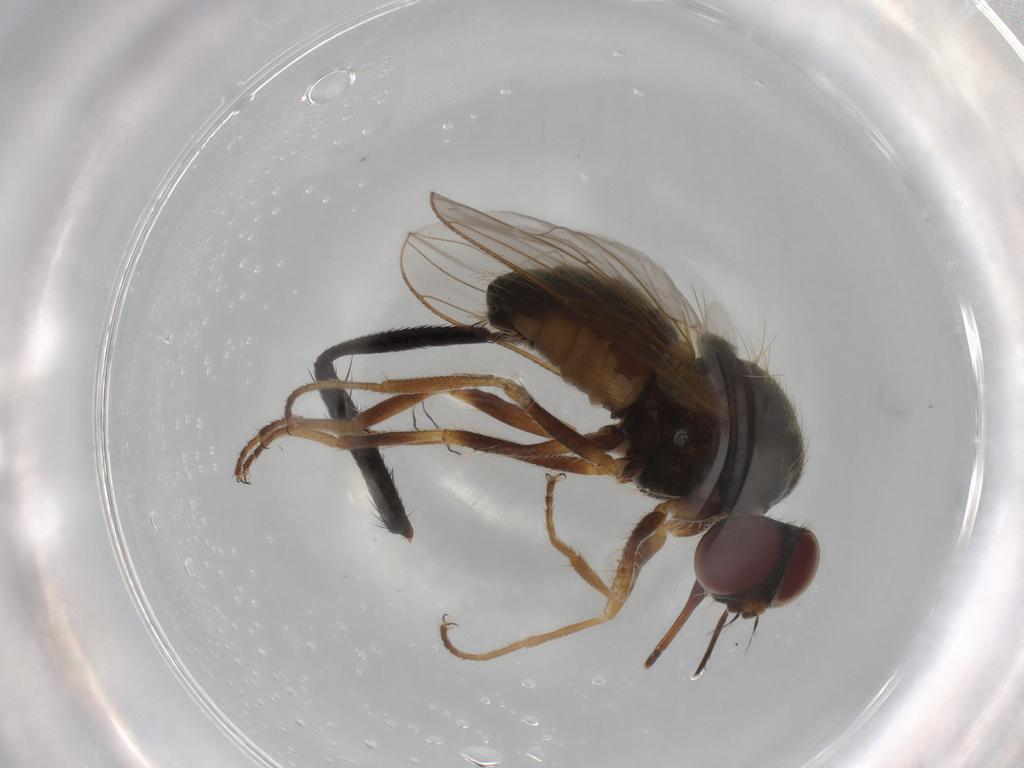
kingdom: Animalia
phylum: Arthropoda
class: Insecta
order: Diptera
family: Muscidae
